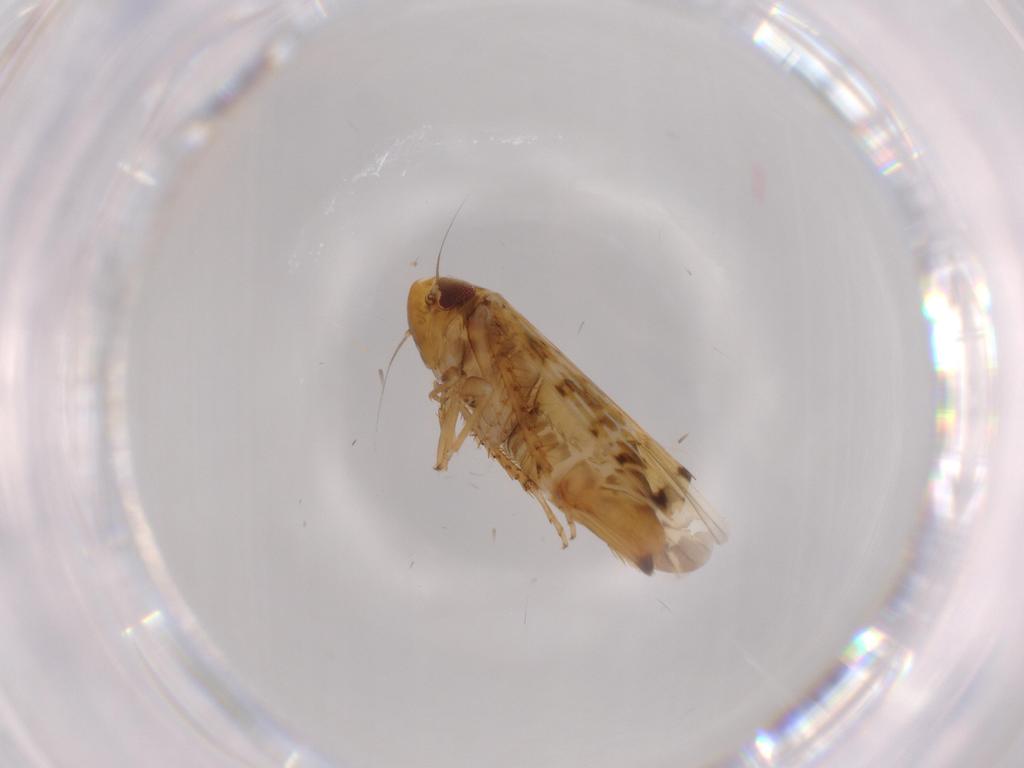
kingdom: Animalia
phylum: Arthropoda
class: Insecta
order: Hemiptera
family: Cicadellidae
